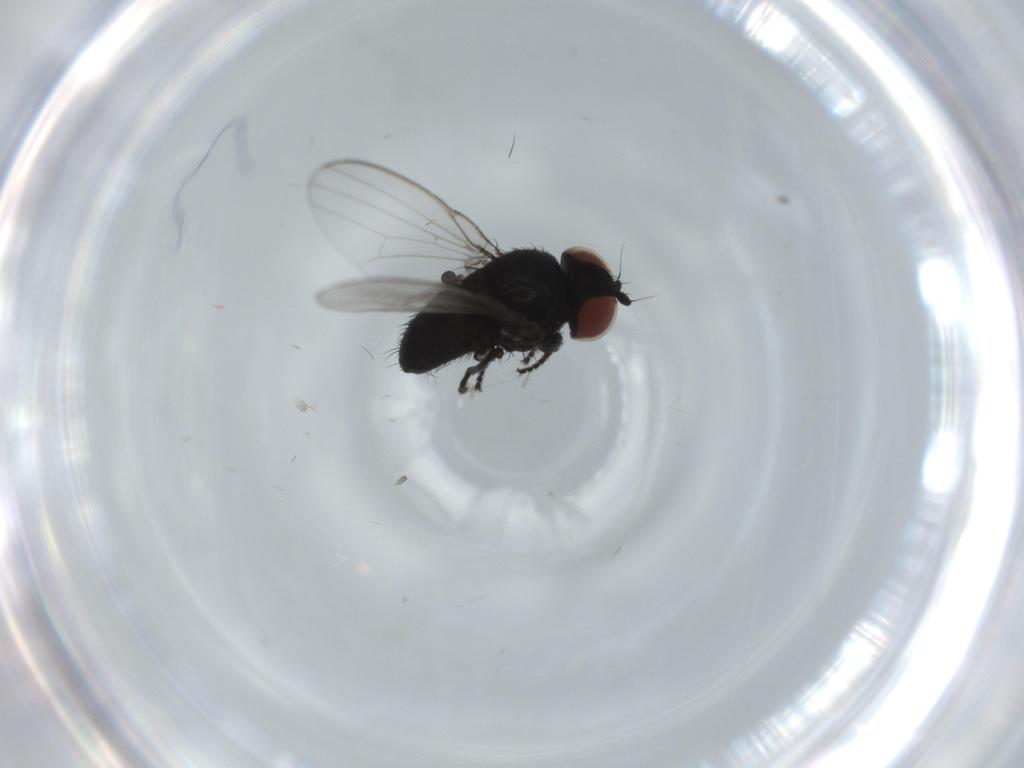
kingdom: Animalia
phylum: Arthropoda
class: Insecta
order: Diptera
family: Milichiidae
